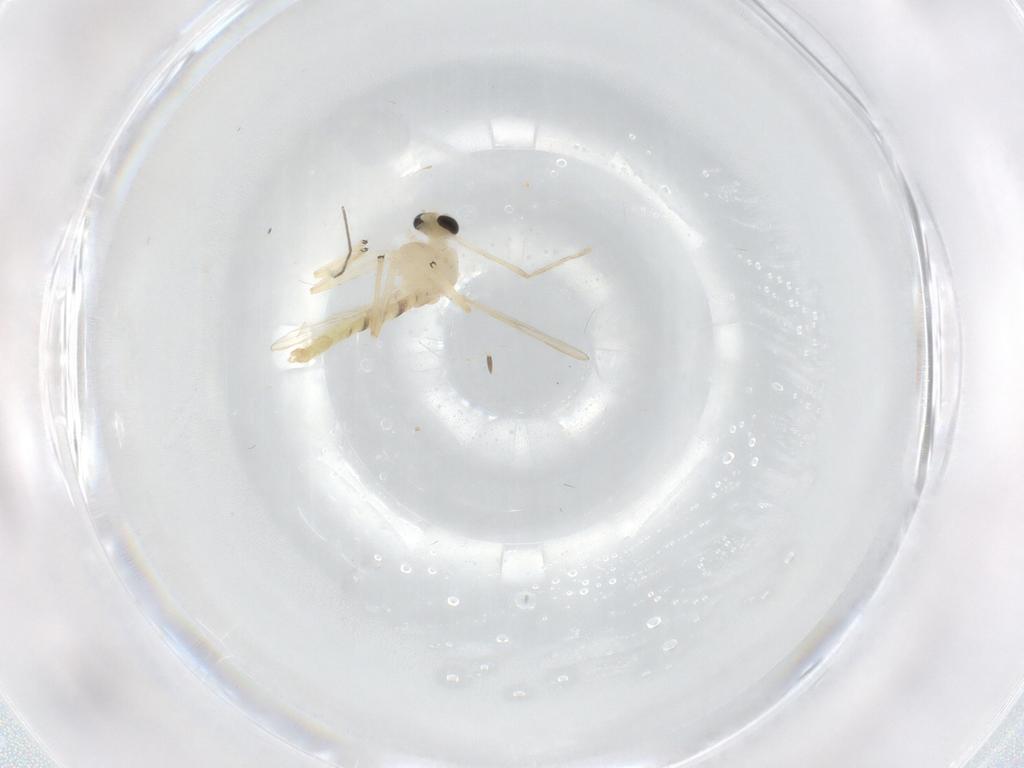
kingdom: Animalia
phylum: Arthropoda
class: Insecta
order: Diptera
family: Chironomidae
